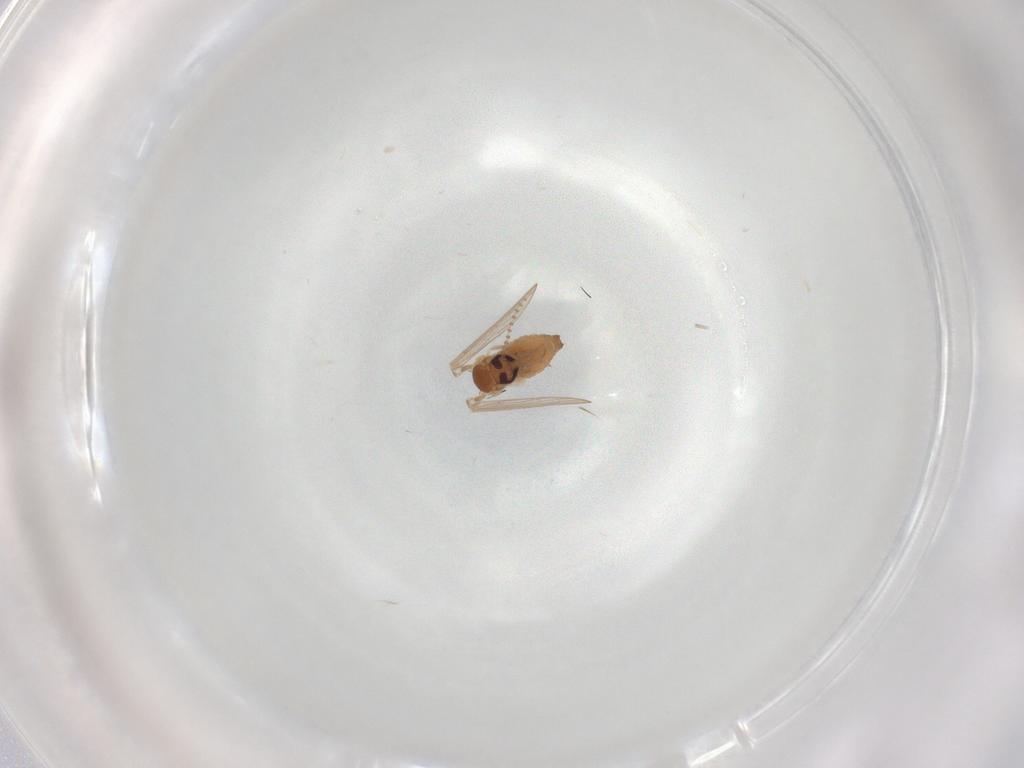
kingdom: Animalia
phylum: Arthropoda
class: Insecta
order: Diptera
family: Psychodidae
